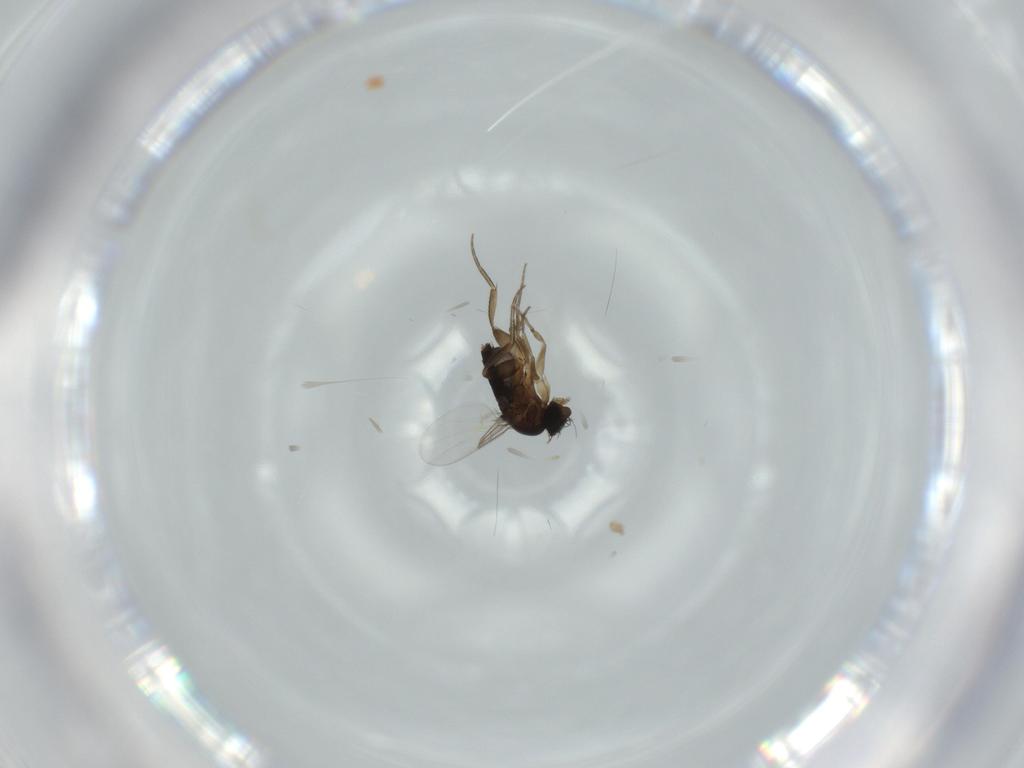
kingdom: Animalia
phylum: Arthropoda
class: Insecta
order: Diptera
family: Phoridae
